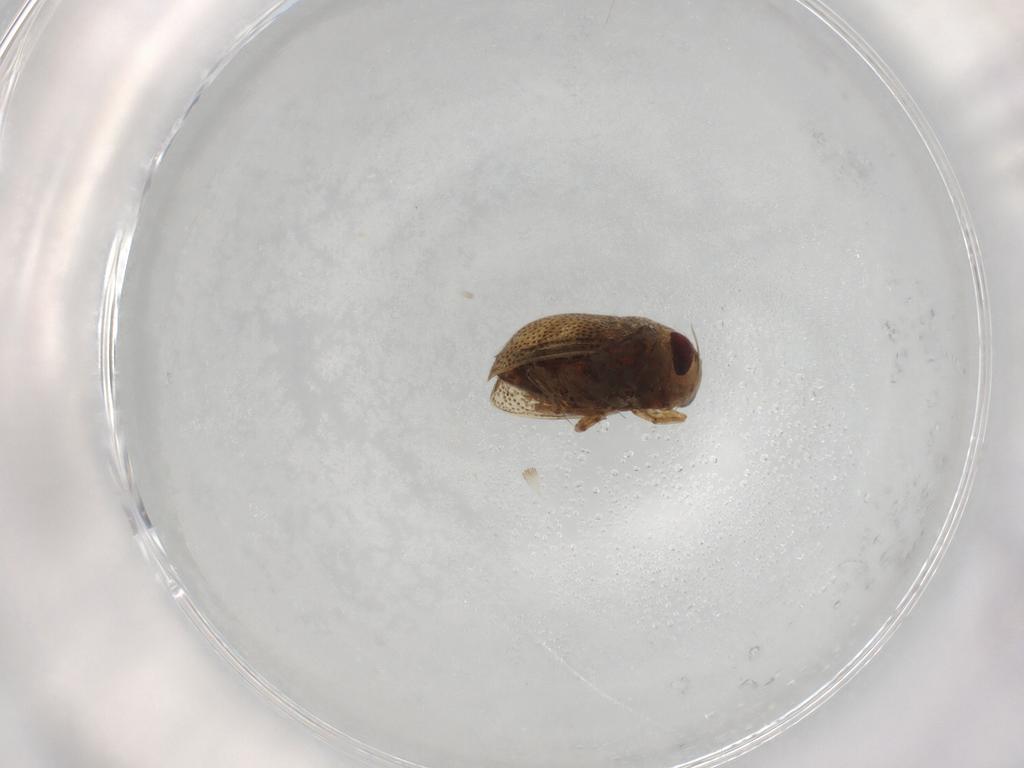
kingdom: Animalia
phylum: Arthropoda
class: Insecta
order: Hemiptera
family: Pleidae
